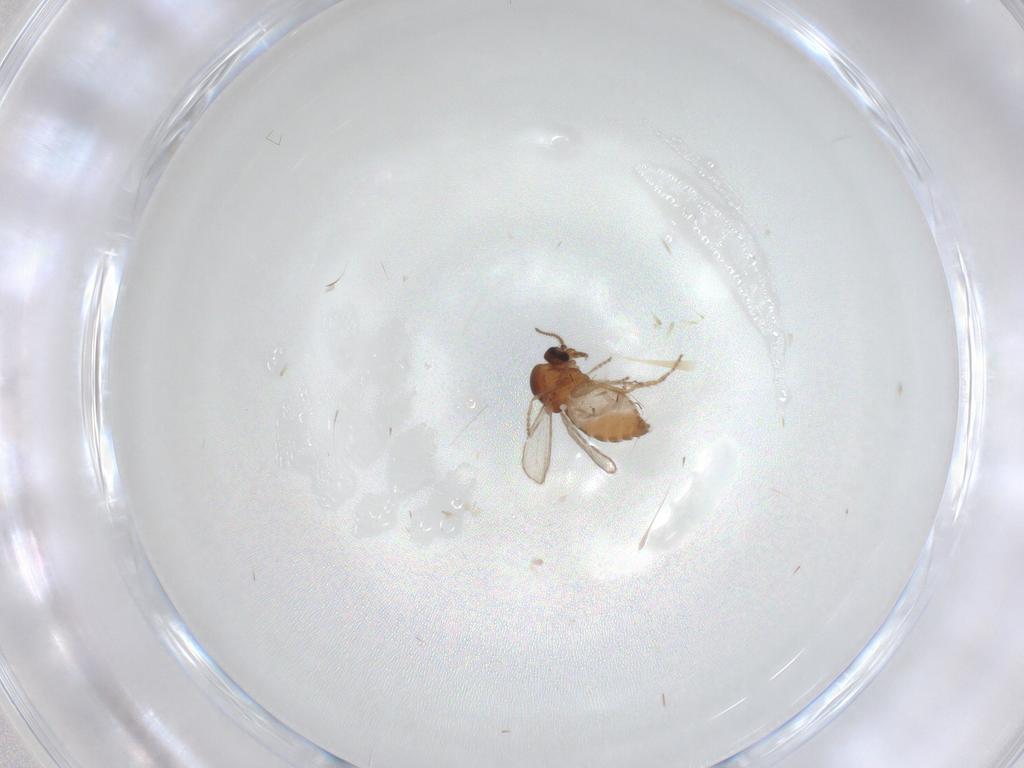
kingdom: Animalia
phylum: Arthropoda
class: Insecta
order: Diptera
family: Ceratopogonidae
